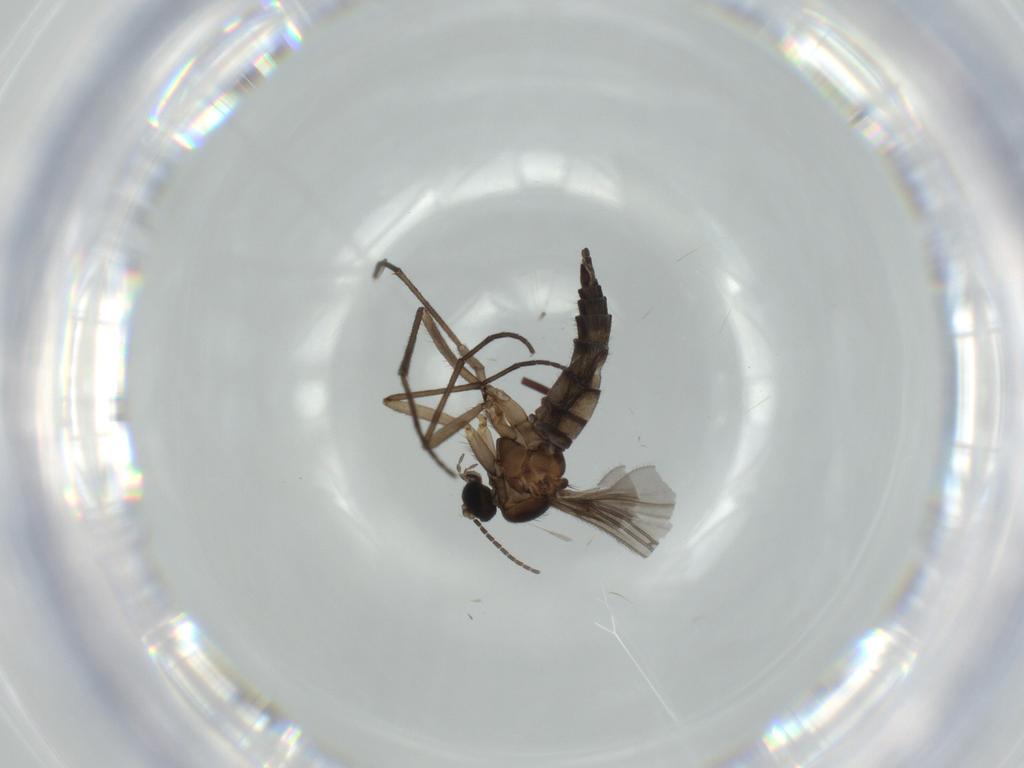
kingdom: Animalia
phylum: Arthropoda
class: Insecta
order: Diptera
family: Sciaridae
